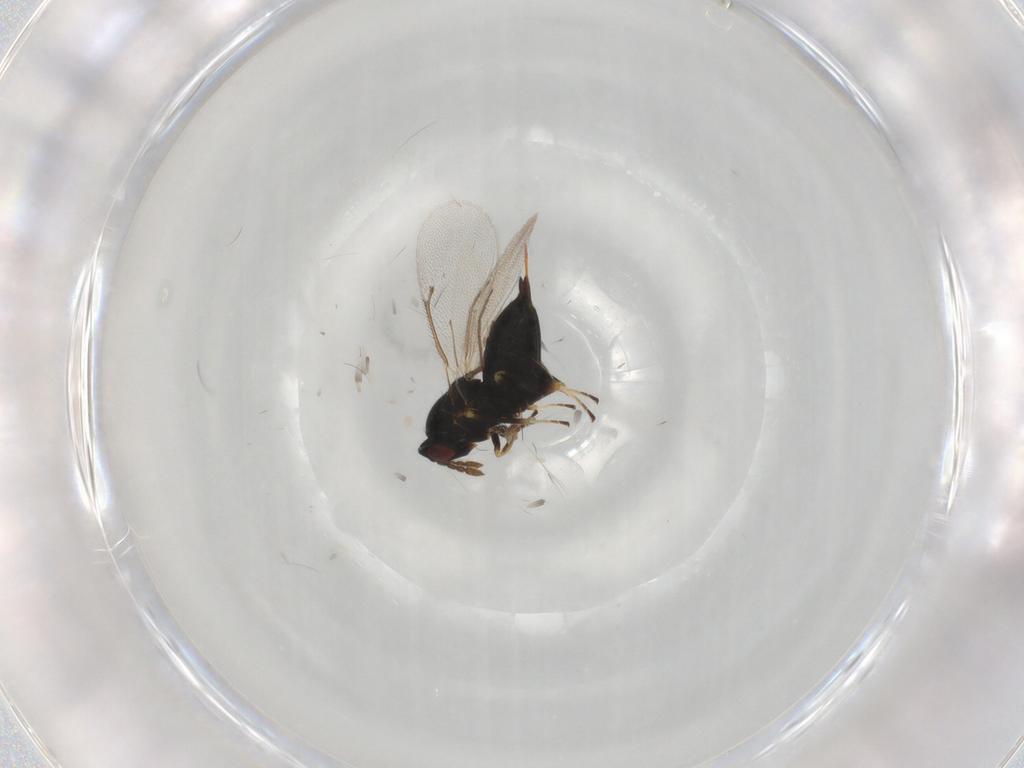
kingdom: Animalia
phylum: Arthropoda
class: Insecta
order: Hymenoptera
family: Eulophidae
